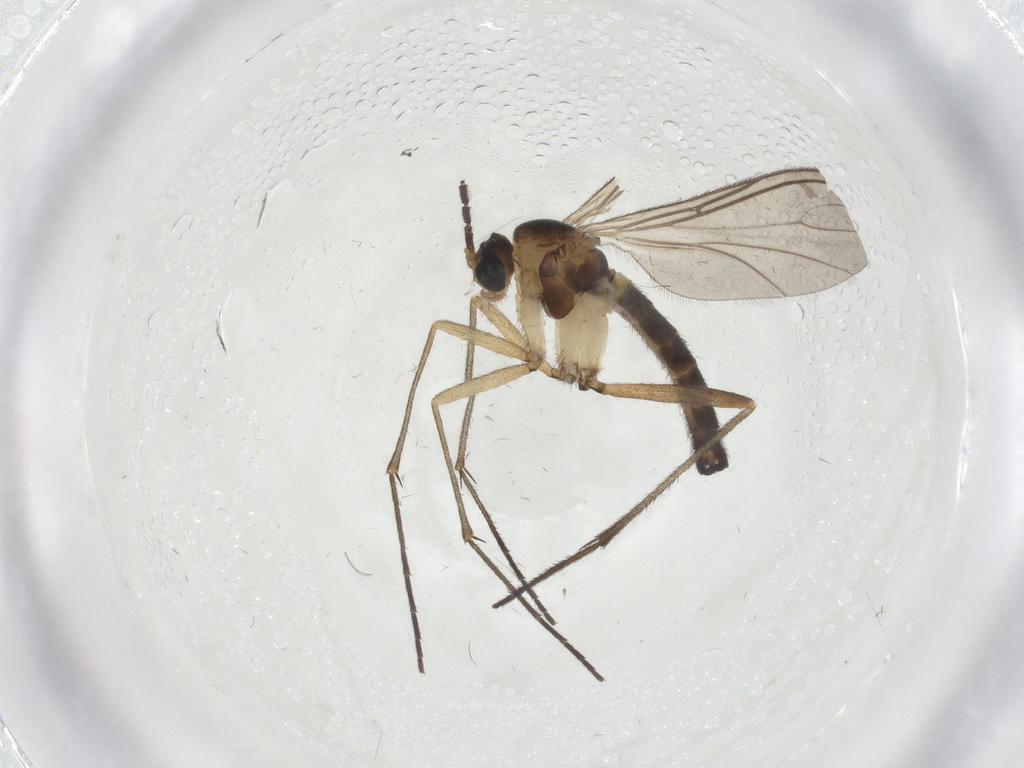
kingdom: Animalia
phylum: Arthropoda
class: Insecta
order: Diptera
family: Sciaridae
